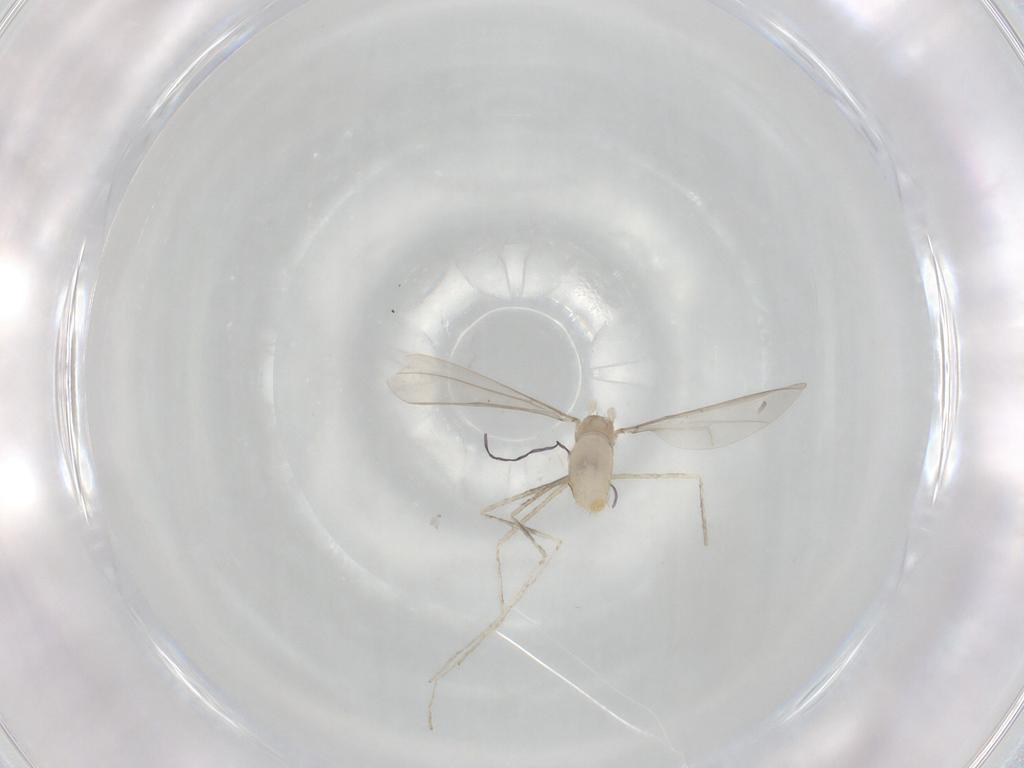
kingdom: Animalia
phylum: Arthropoda
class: Insecta
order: Diptera
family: Cecidomyiidae
